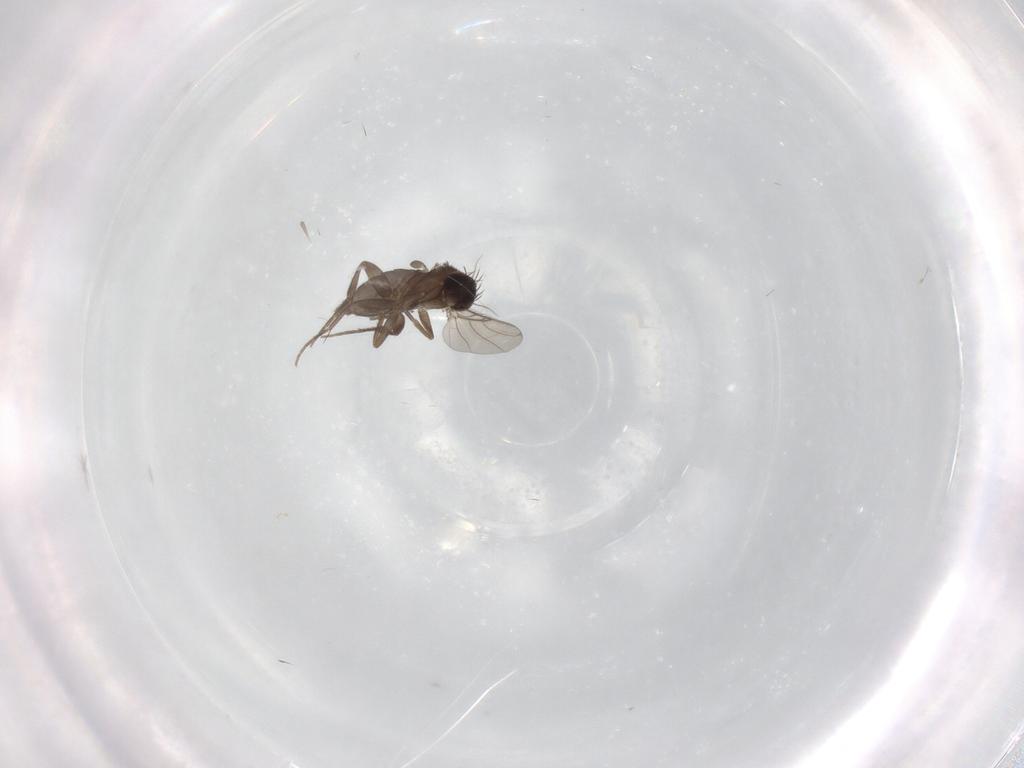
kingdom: Animalia
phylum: Arthropoda
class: Insecta
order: Diptera
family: Phoridae
